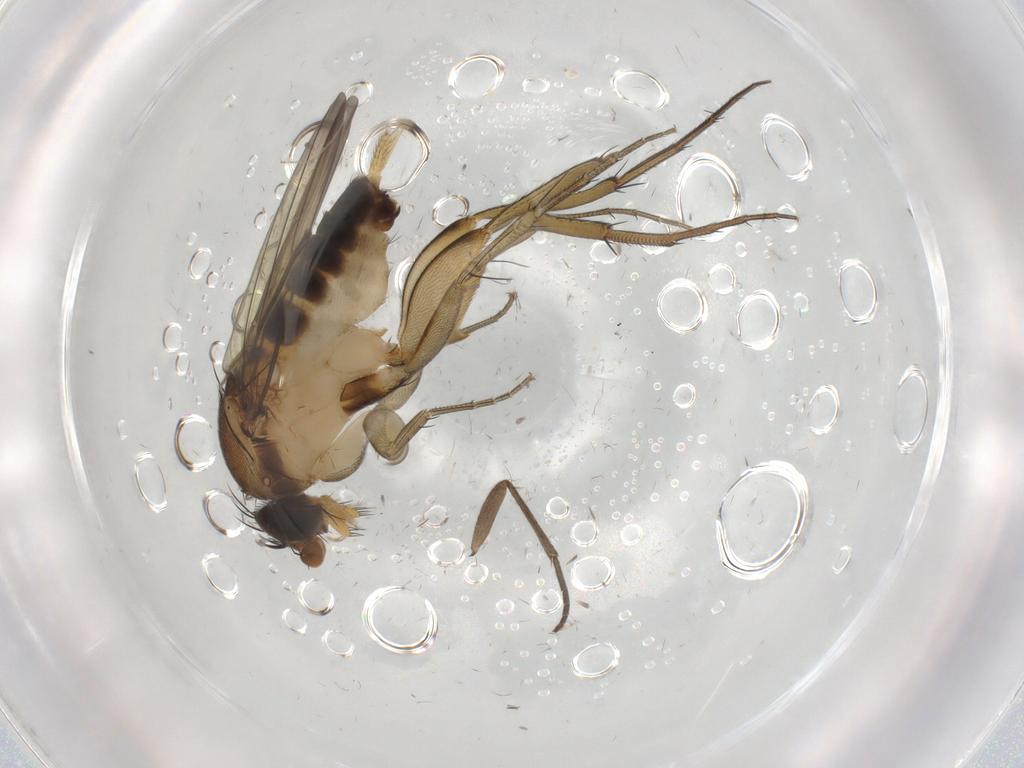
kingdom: Animalia
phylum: Arthropoda
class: Insecta
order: Diptera
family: Phoridae
